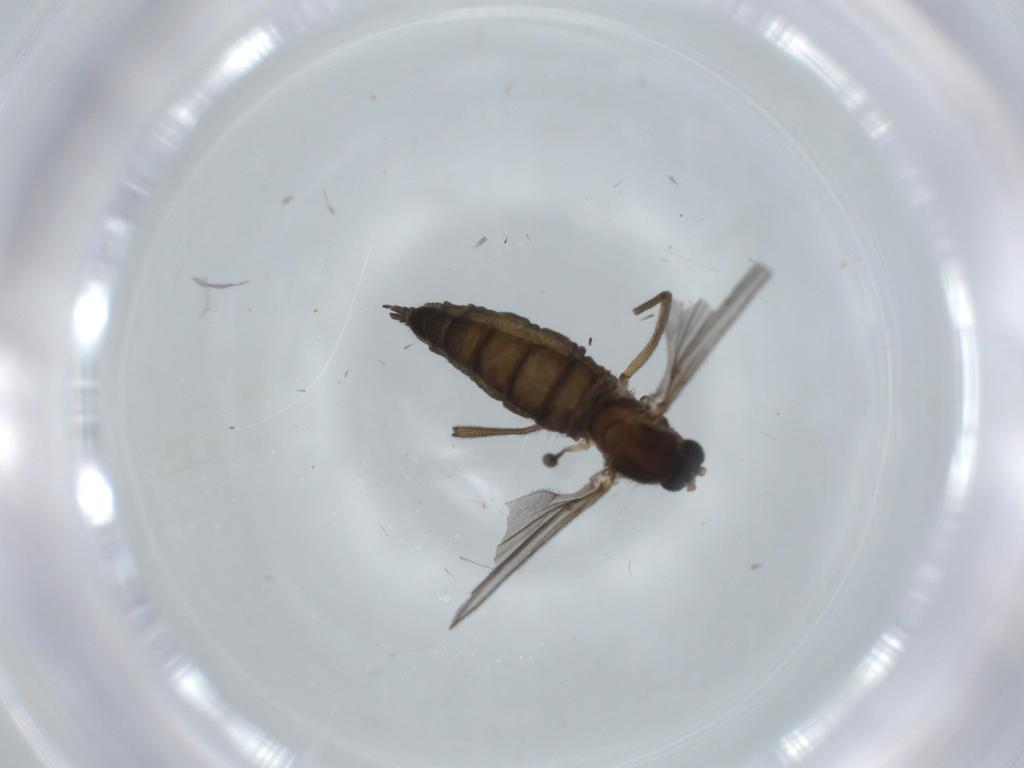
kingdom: Animalia
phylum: Arthropoda
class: Insecta
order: Diptera
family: Sciaridae
